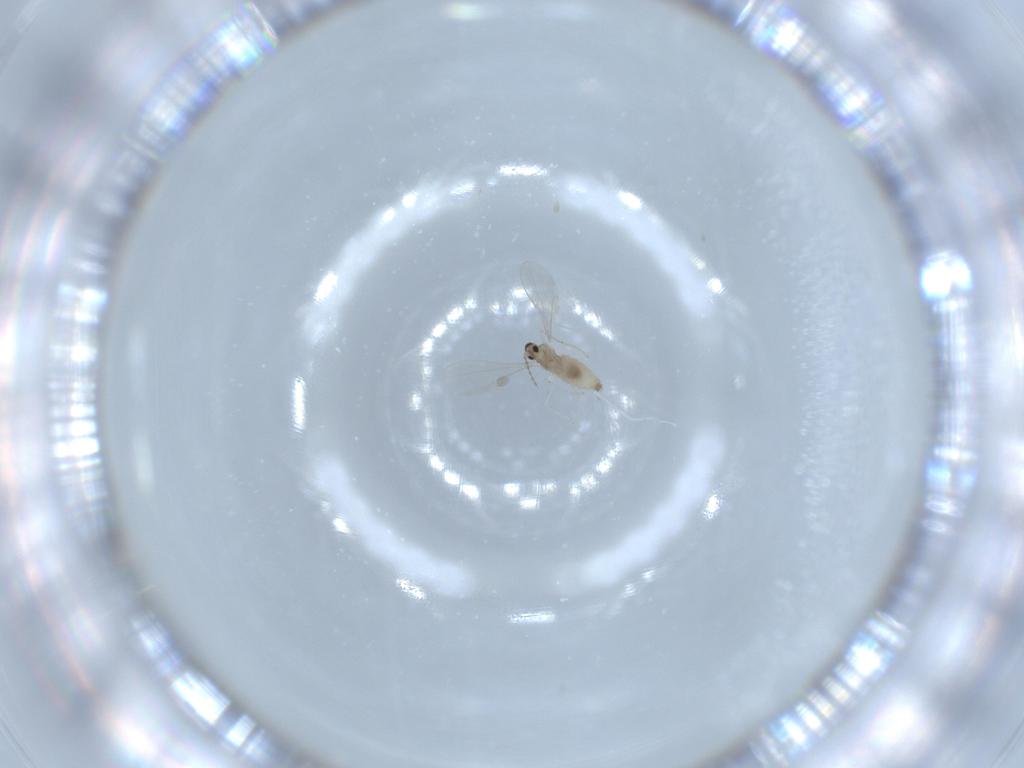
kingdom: Animalia
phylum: Arthropoda
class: Insecta
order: Diptera
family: Cecidomyiidae
